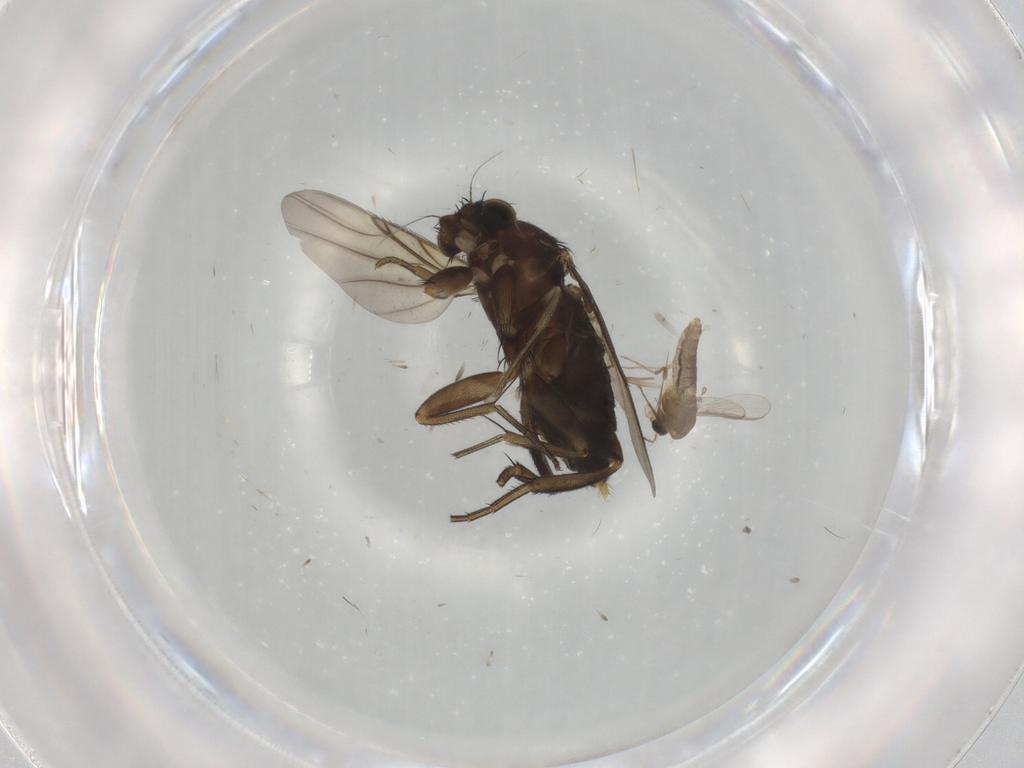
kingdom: Animalia
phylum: Arthropoda
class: Insecta
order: Diptera
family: Phoridae
